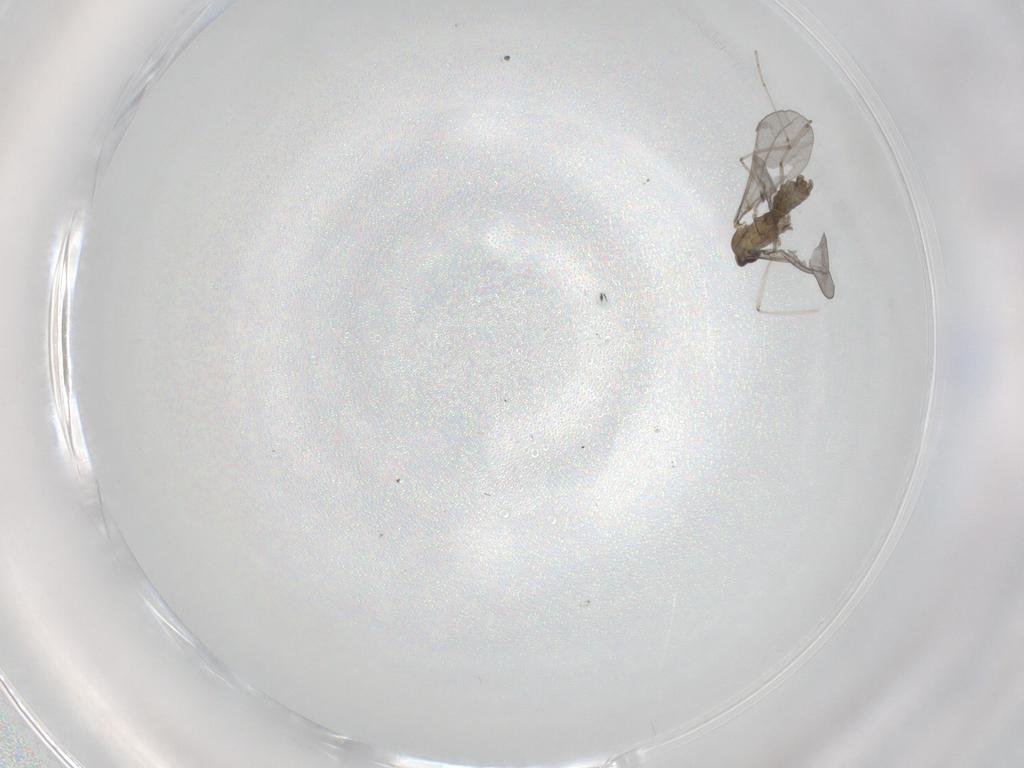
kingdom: Animalia
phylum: Arthropoda
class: Insecta
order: Diptera
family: Cecidomyiidae
